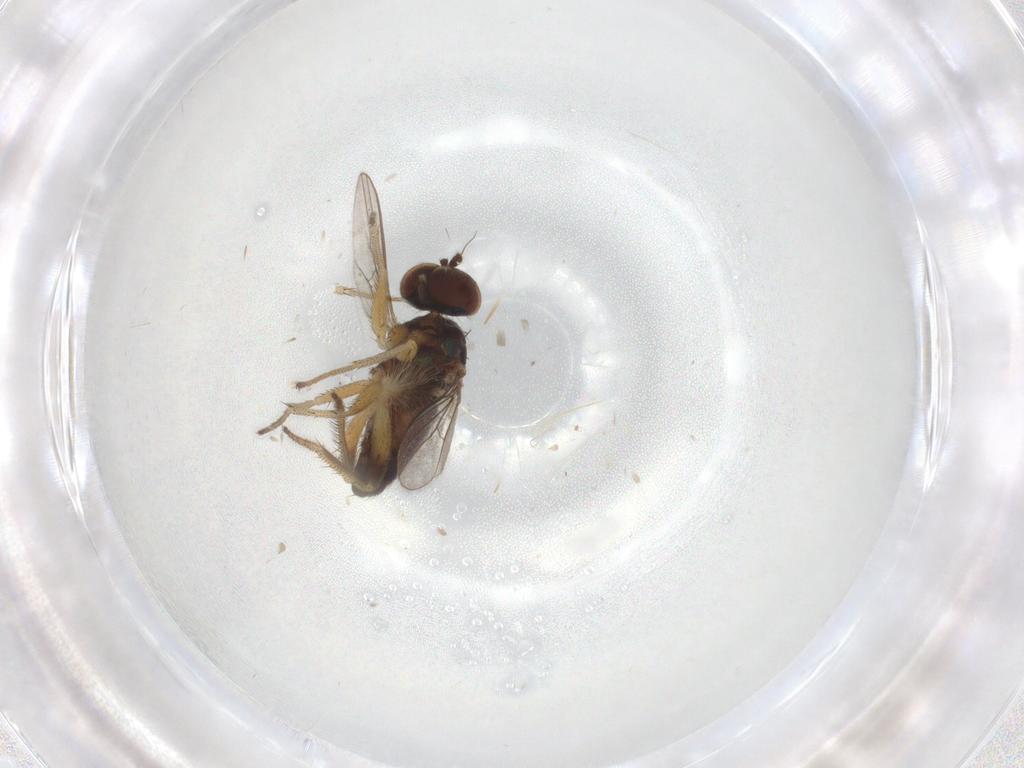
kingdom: Animalia
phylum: Arthropoda
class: Insecta
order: Diptera
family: Dolichopodidae
